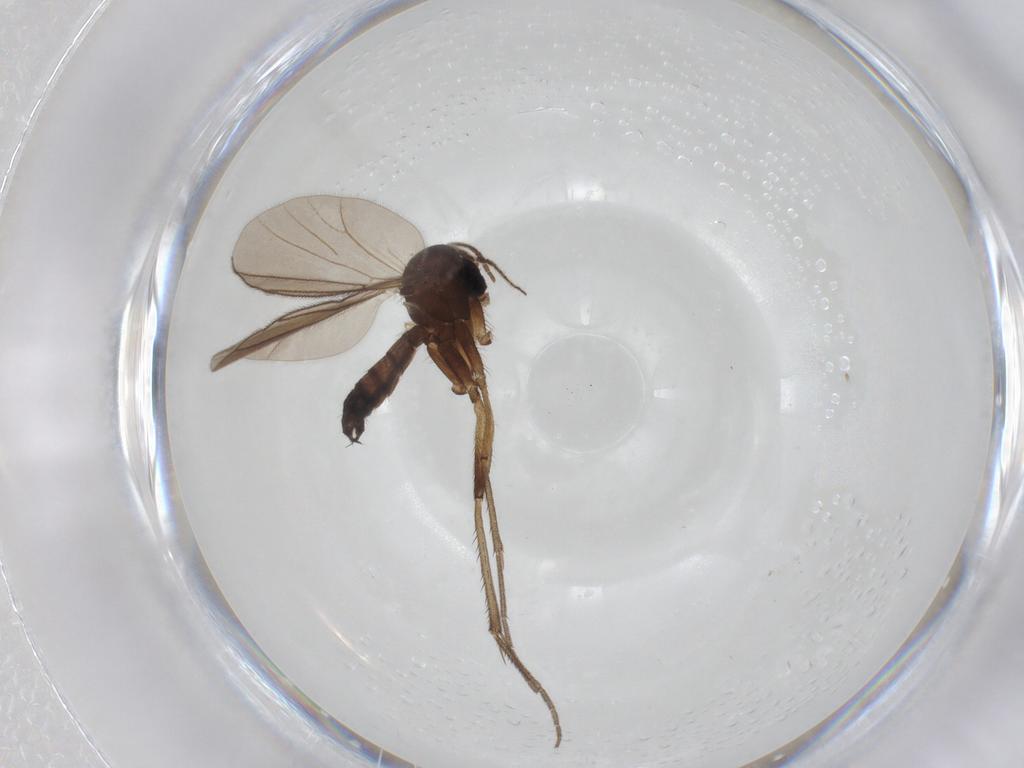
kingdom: Animalia
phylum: Arthropoda
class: Insecta
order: Diptera
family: Mycetophilidae
